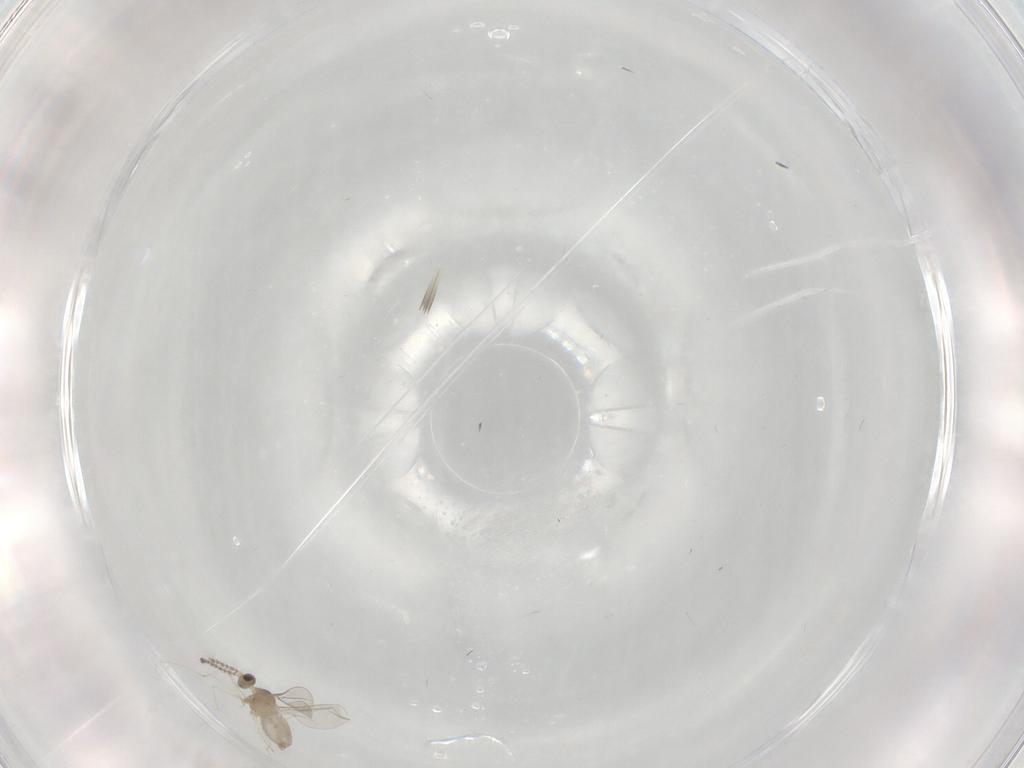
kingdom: Animalia
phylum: Arthropoda
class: Insecta
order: Diptera
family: Cecidomyiidae
